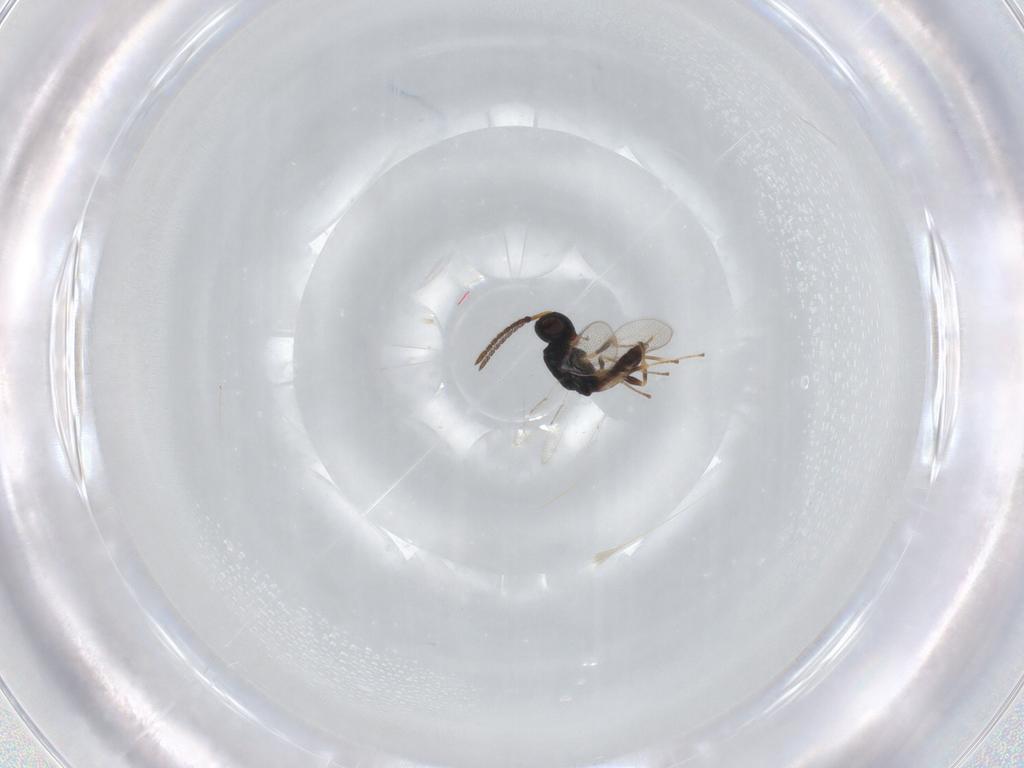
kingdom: Animalia
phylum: Arthropoda
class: Insecta
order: Hymenoptera
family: Pteromalidae
